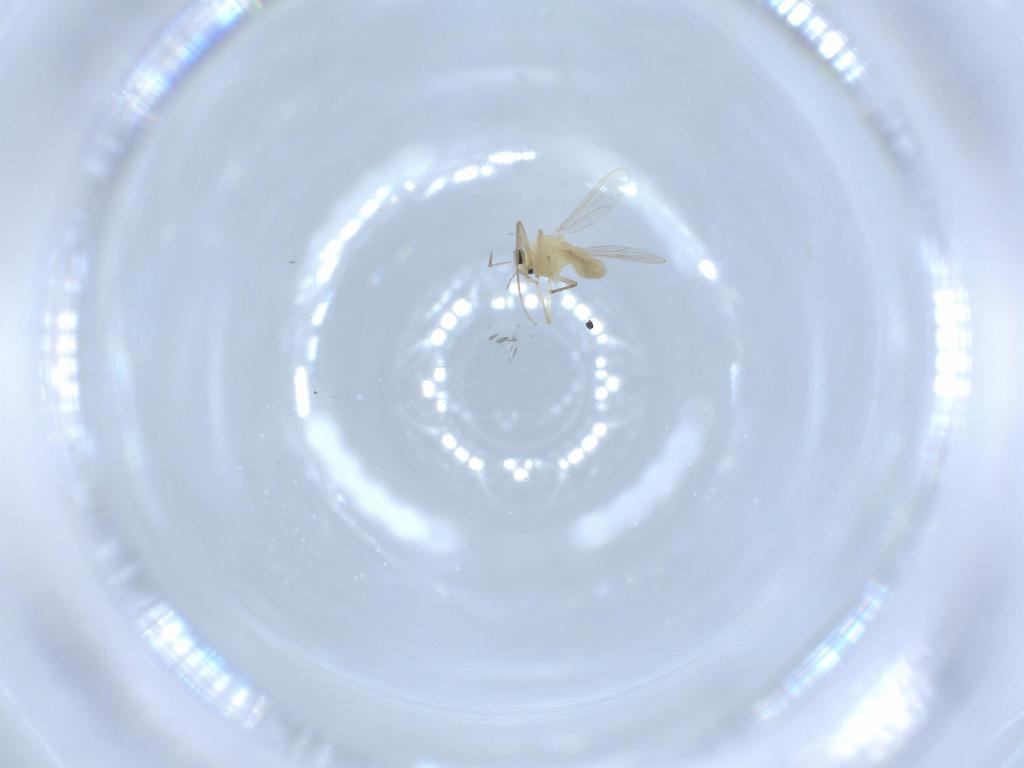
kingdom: Animalia
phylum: Arthropoda
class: Insecta
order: Diptera
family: Chironomidae
